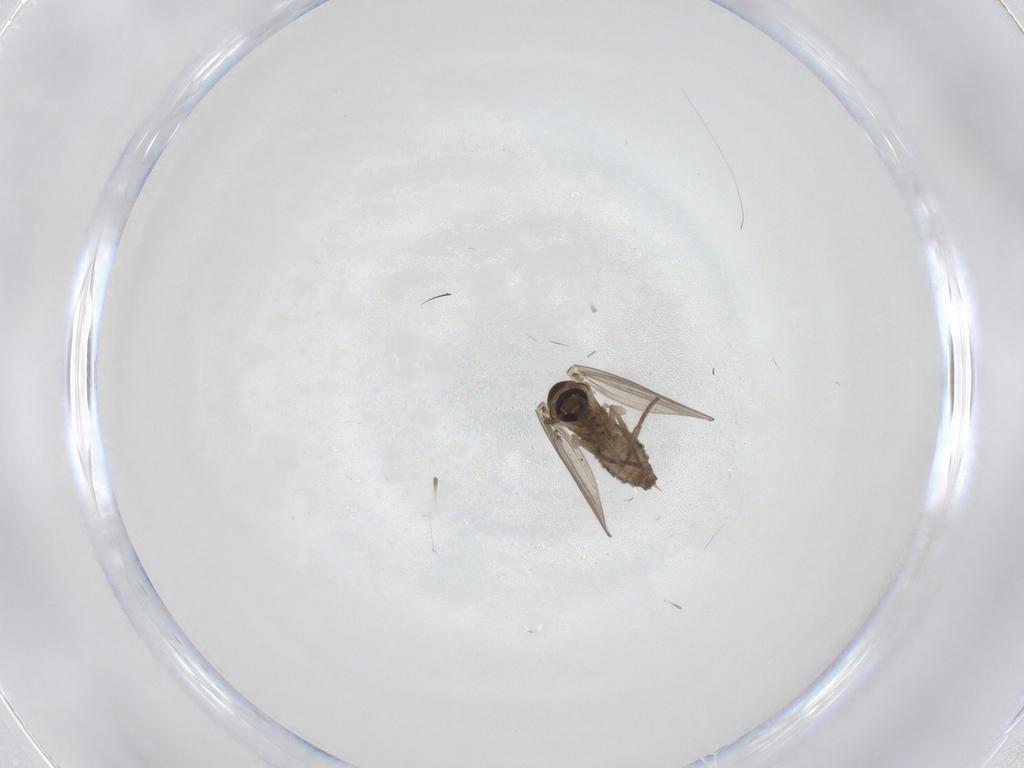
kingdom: Animalia
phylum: Arthropoda
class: Insecta
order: Diptera
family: Psychodidae
